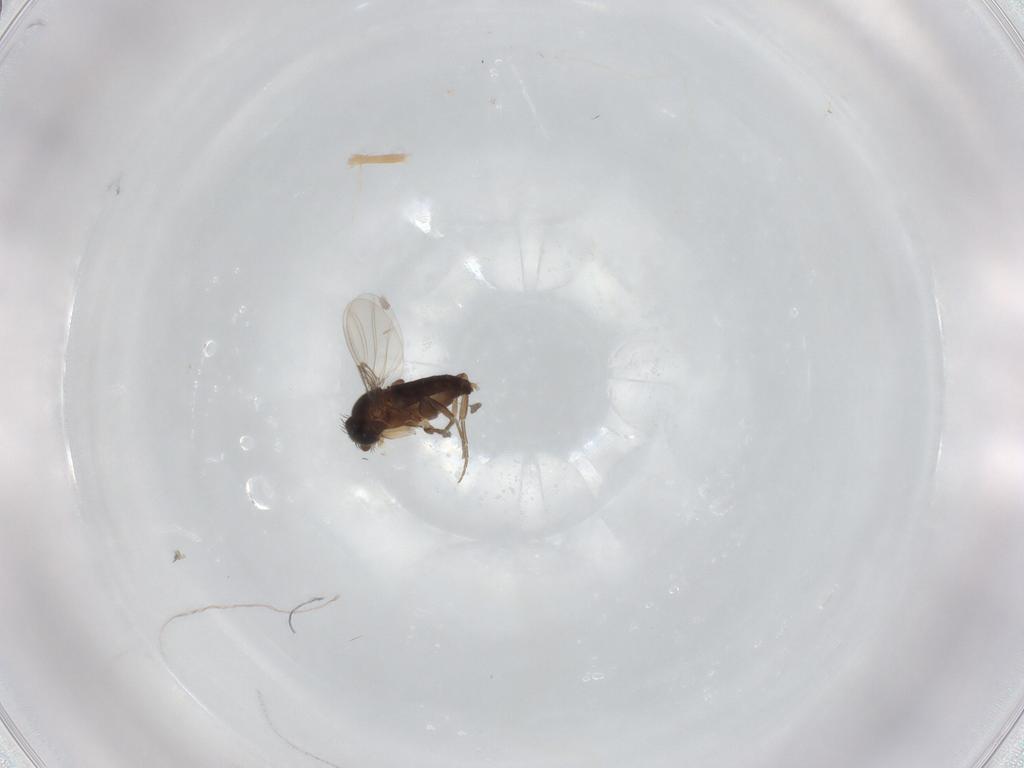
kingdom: Animalia
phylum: Arthropoda
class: Insecta
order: Diptera
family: Phoridae
